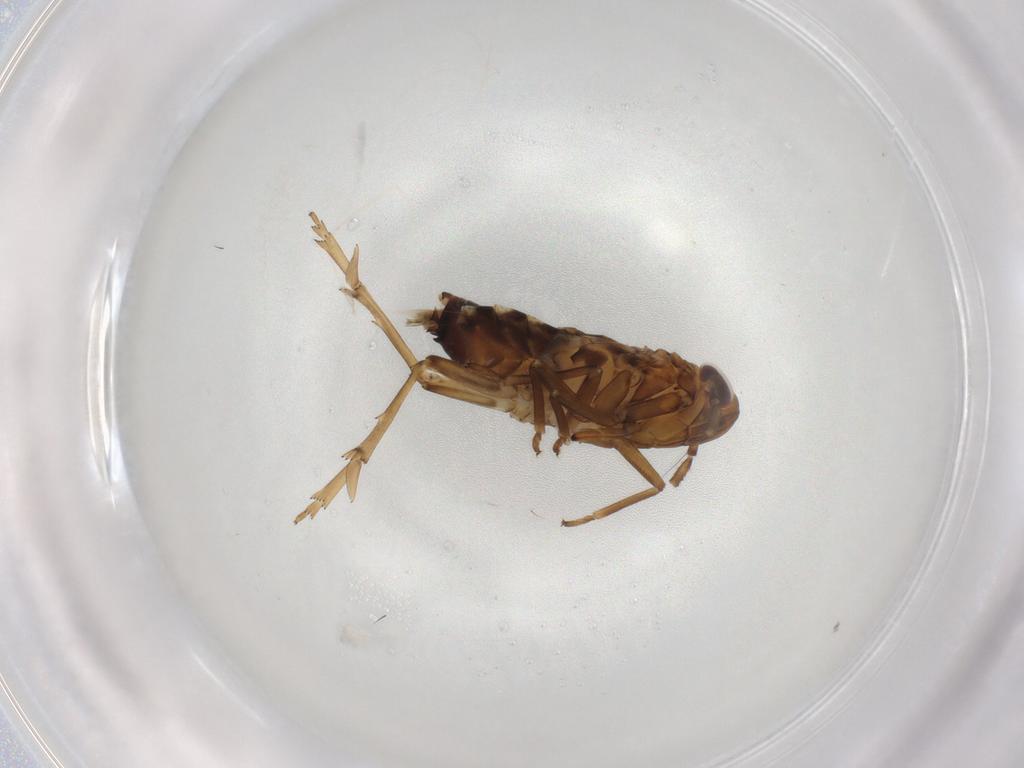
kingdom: Animalia
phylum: Arthropoda
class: Insecta
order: Hemiptera
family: Delphacidae
